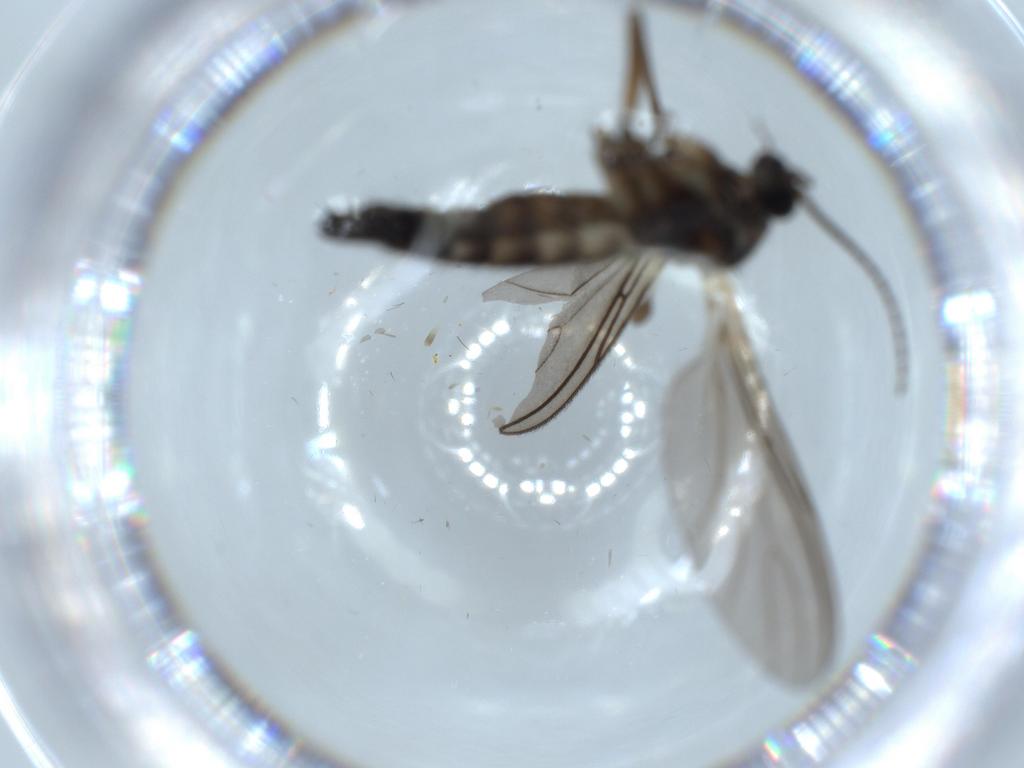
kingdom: Animalia
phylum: Arthropoda
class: Insecta
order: Diptera
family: Sciaridae
